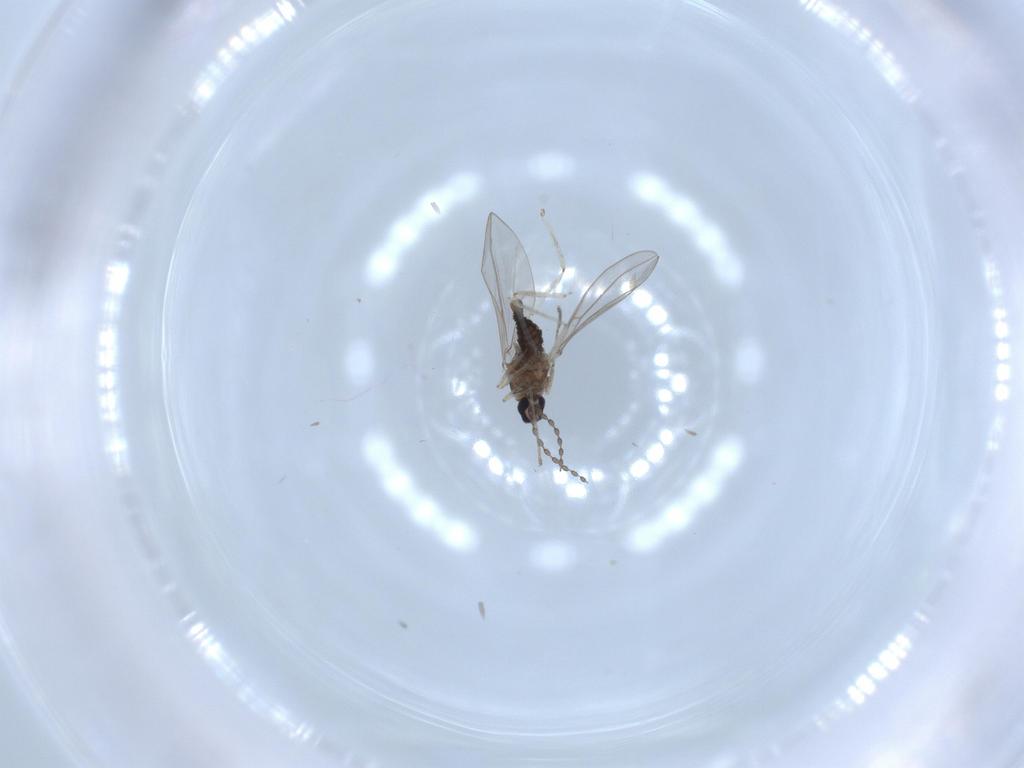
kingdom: Animalia
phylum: Arthropoda
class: Insecta
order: Diptera
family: Cecidomyiidae
